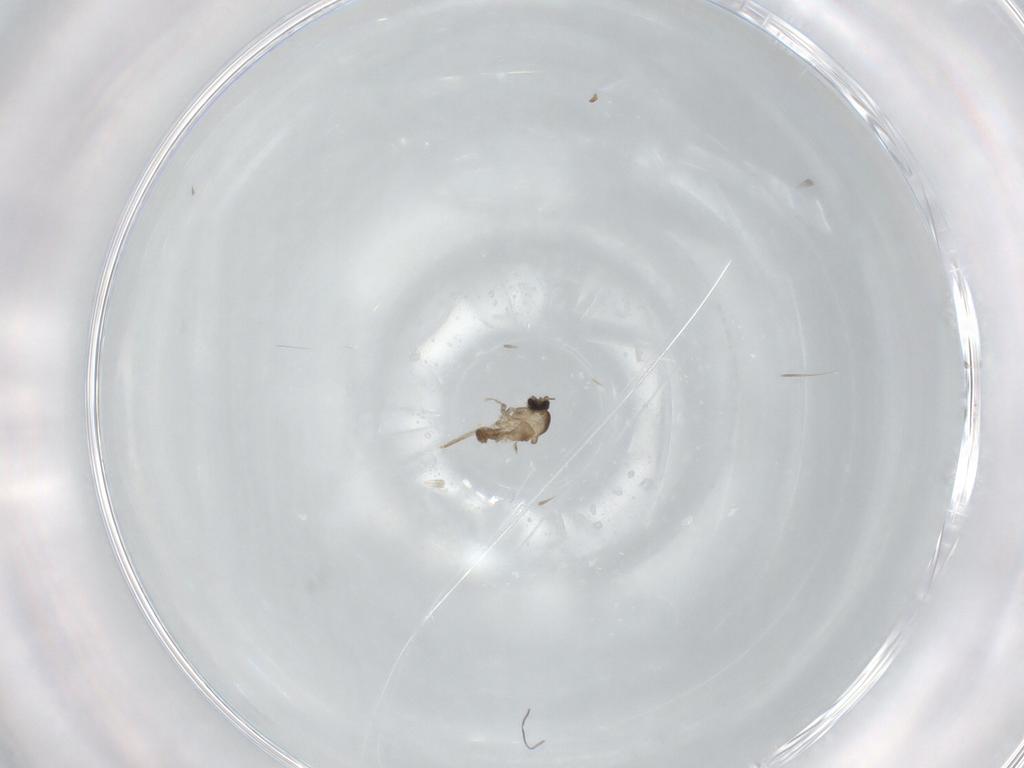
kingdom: Animalia
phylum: Arthropoda
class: Insecta
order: Diptera
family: Cecidomyiidae
